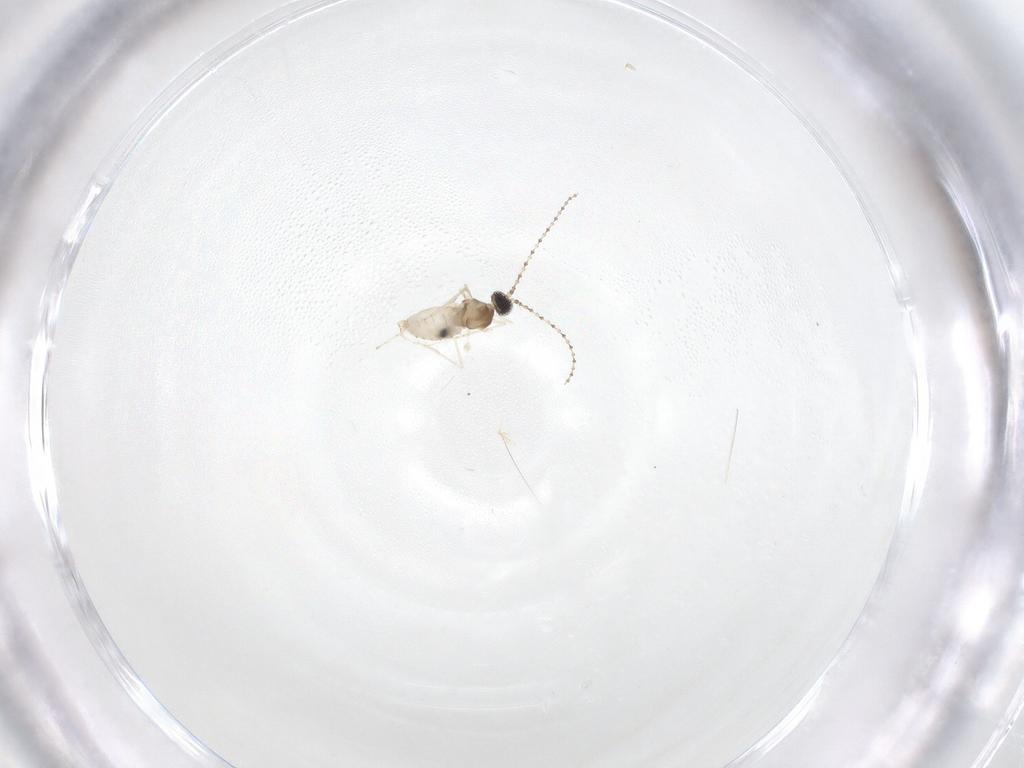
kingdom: Animalia
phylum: Arthropoda
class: Insecta
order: Diptera
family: Cecidomyiidae
